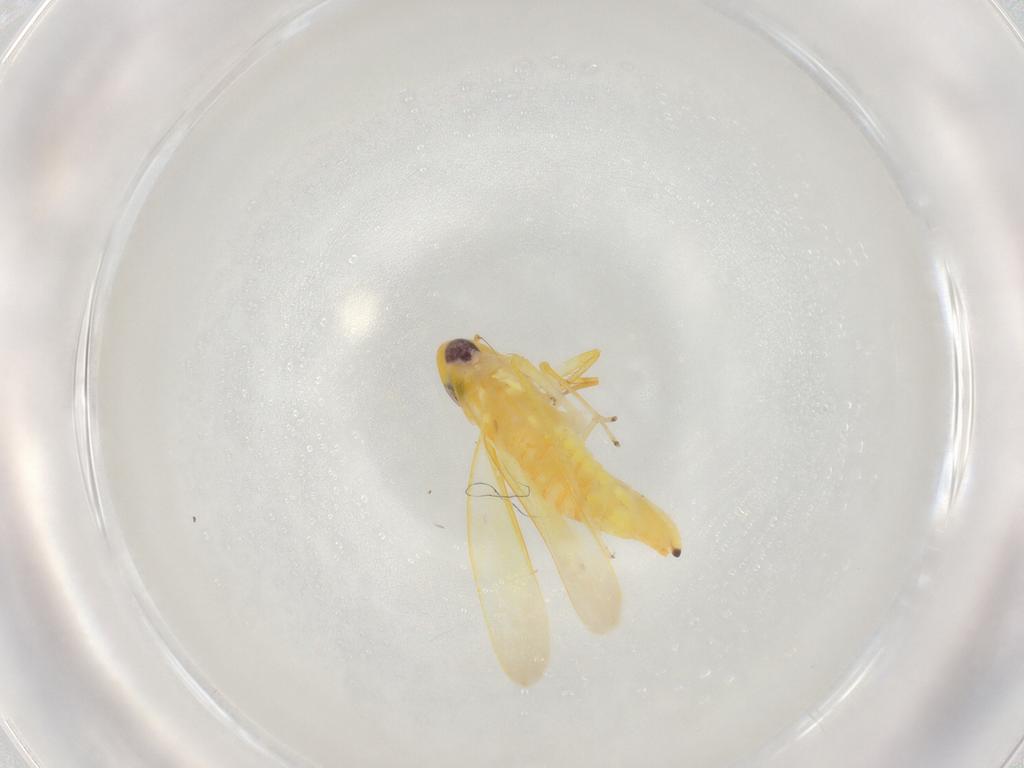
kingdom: Animalia
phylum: Arthropoda
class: Insecta
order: Hemiptera
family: Cicadellidae
